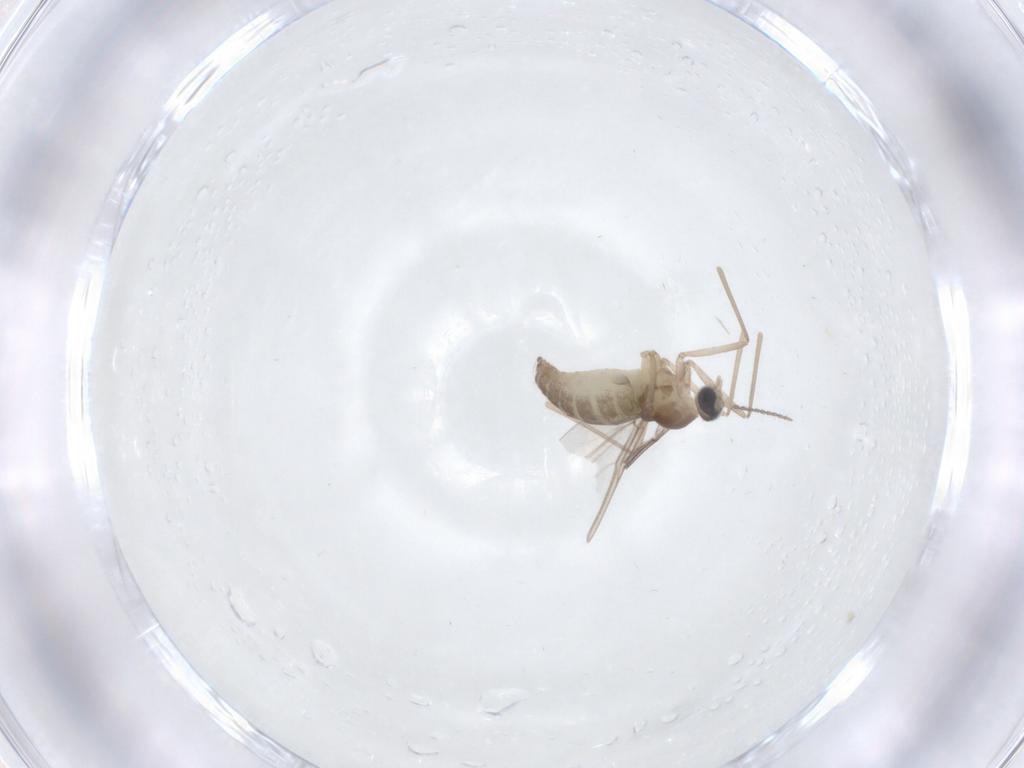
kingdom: Animalia
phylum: Arthropoda
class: Insecta
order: Diptera
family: Cecidomyiidae
